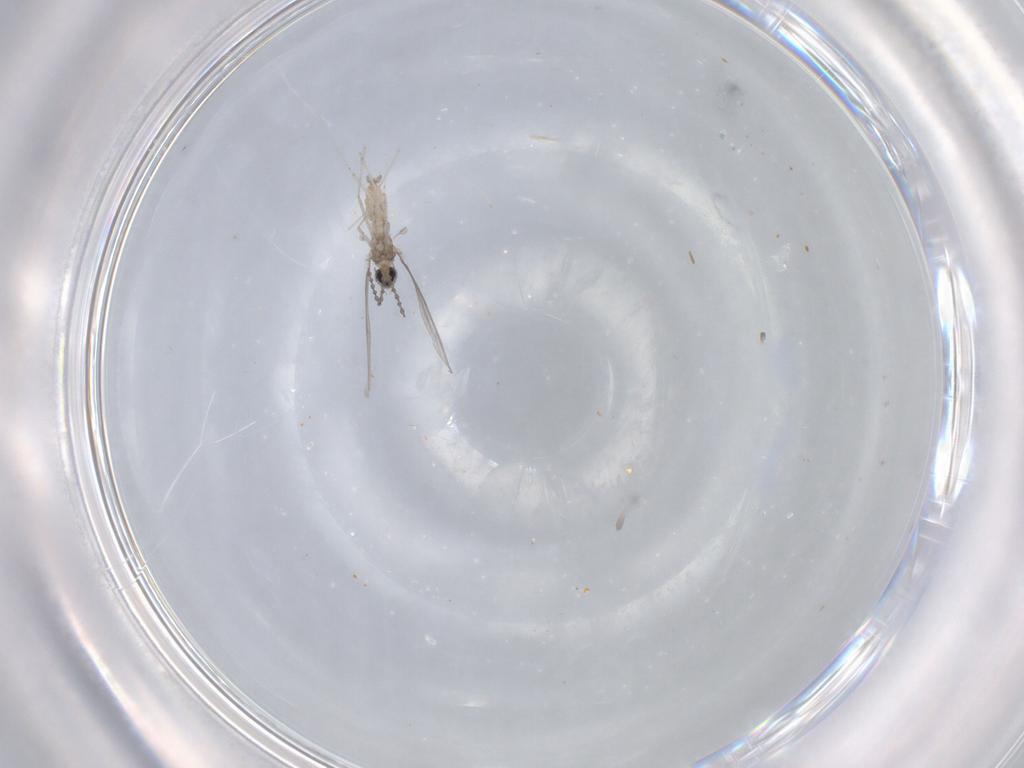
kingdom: Animalia
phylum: Arthropoda
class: Insecta
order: Diptera
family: Cecidomyiidae
